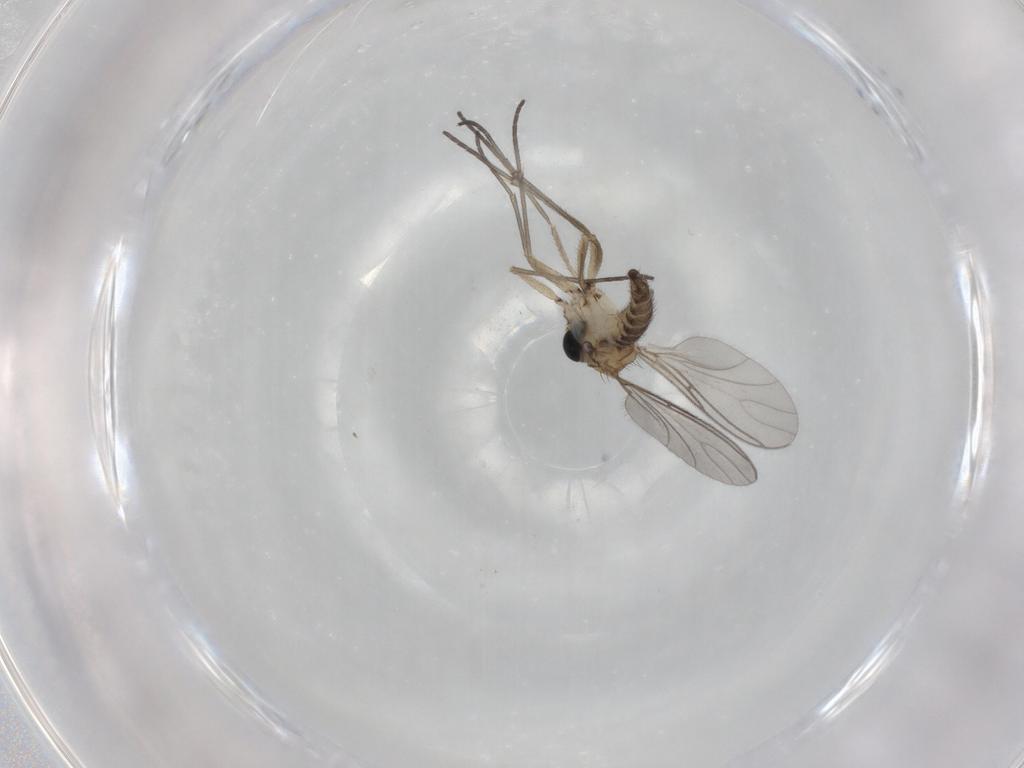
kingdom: Animalia
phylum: Arthropoda
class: Insecta
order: Diptera
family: Sciaridae
